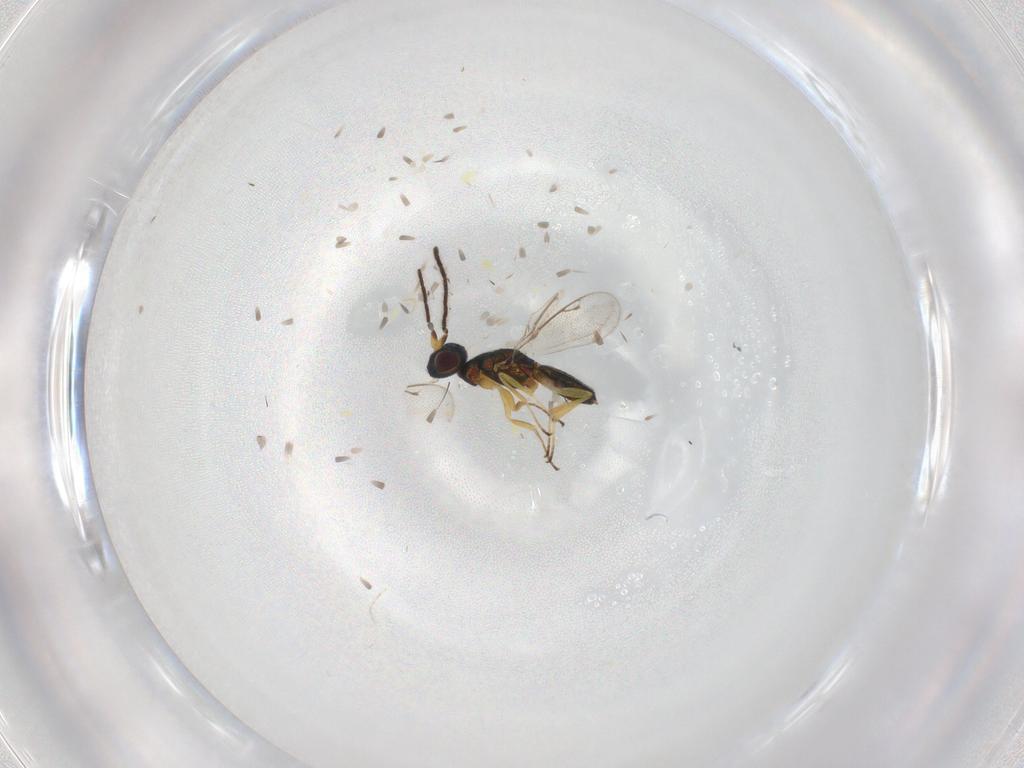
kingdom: Animalia
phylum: Arthropoda
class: Insecta
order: Hymenoptera
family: Eupelmidae
